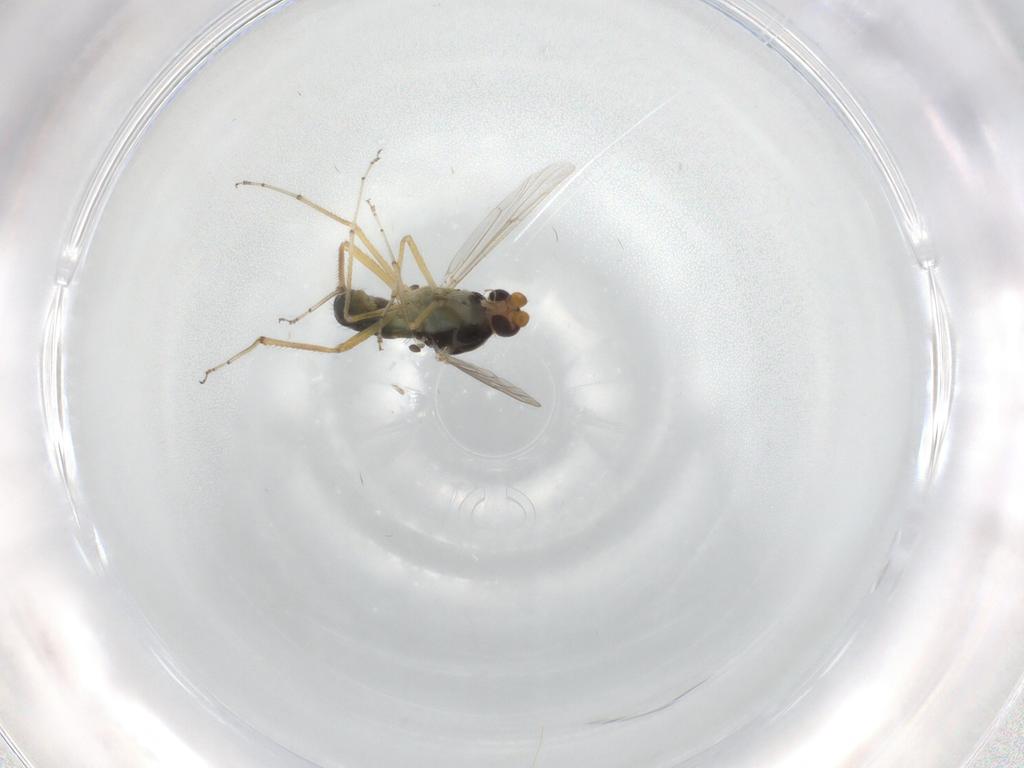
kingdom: Animalia
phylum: Arthropoda
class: Insecta
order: Diptera
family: Ceratopogonidae
